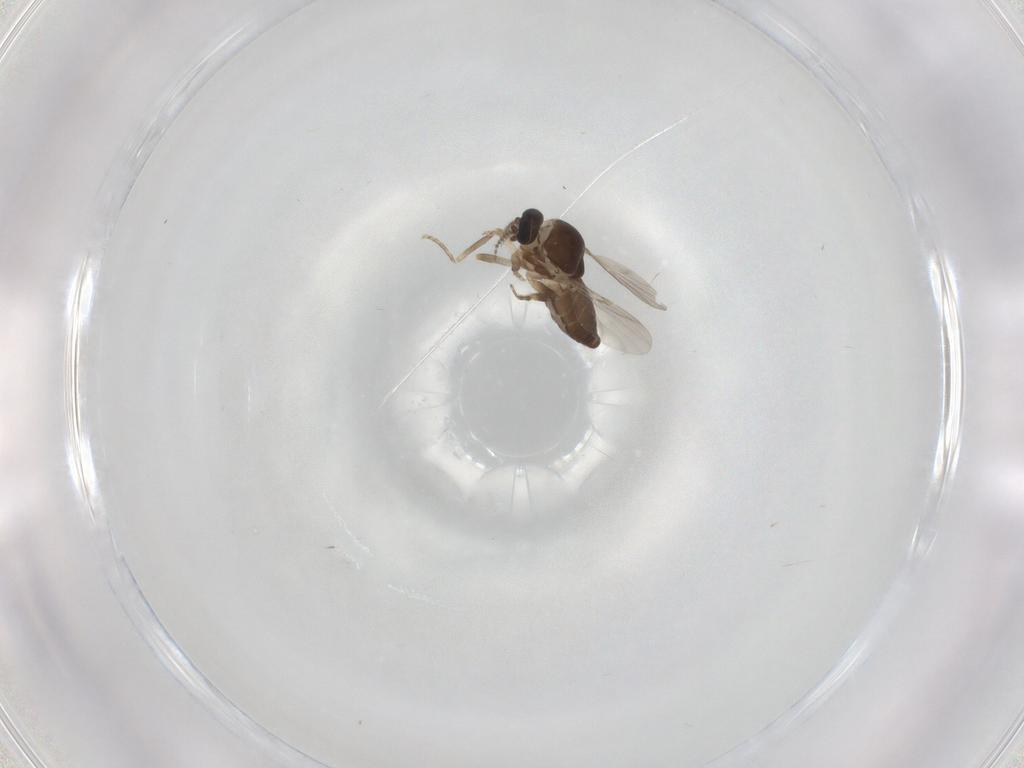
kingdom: Animalia
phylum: Arthropoda
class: Insecta
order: Diptera
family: Ceratopogonidae
